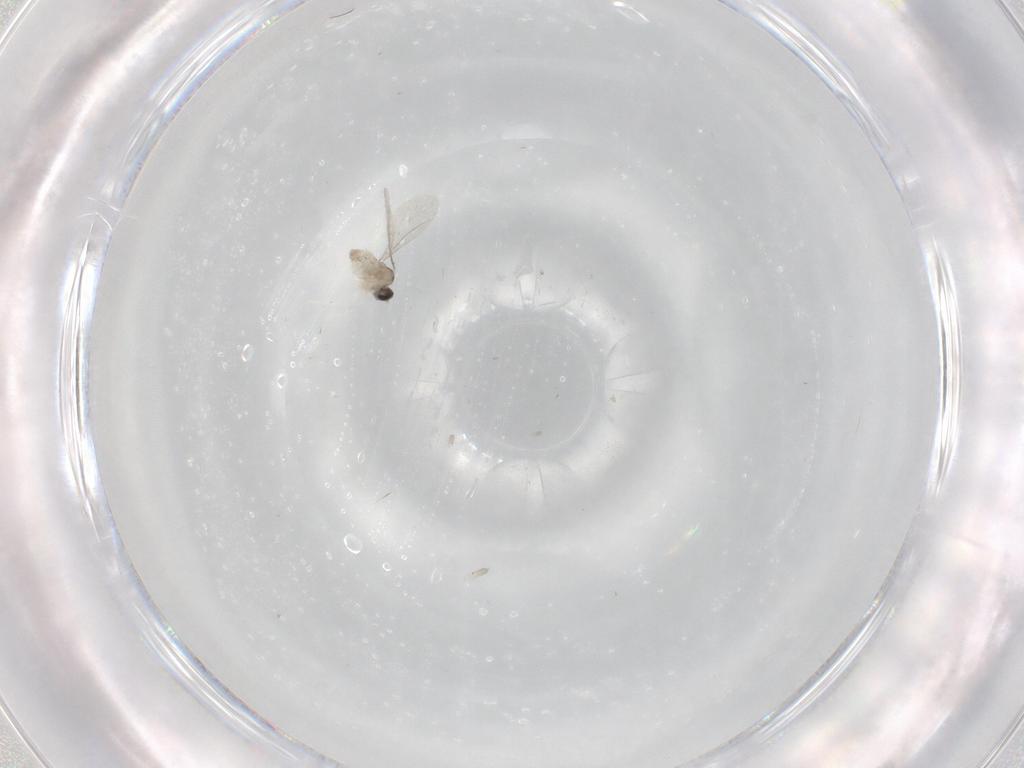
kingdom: Animalia
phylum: Arthropoda
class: Insecta
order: Diptera
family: Cecidomyiidae
